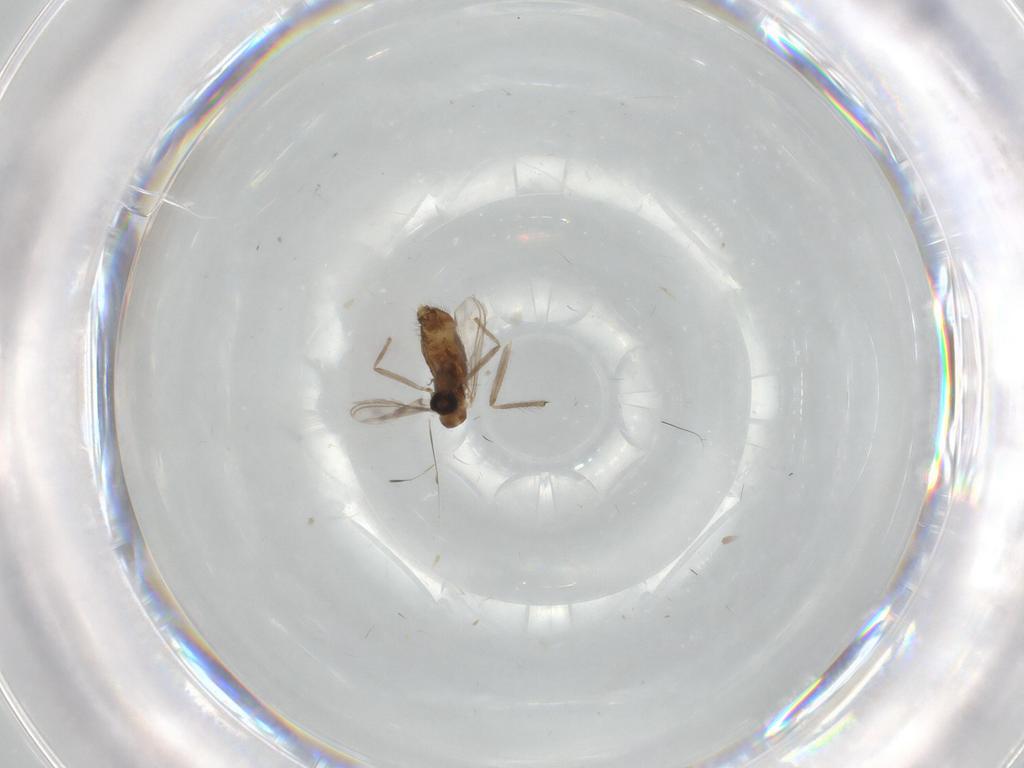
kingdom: Animalia
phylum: Arthropoda
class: Insecta
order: Diptera
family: Chironomidae
